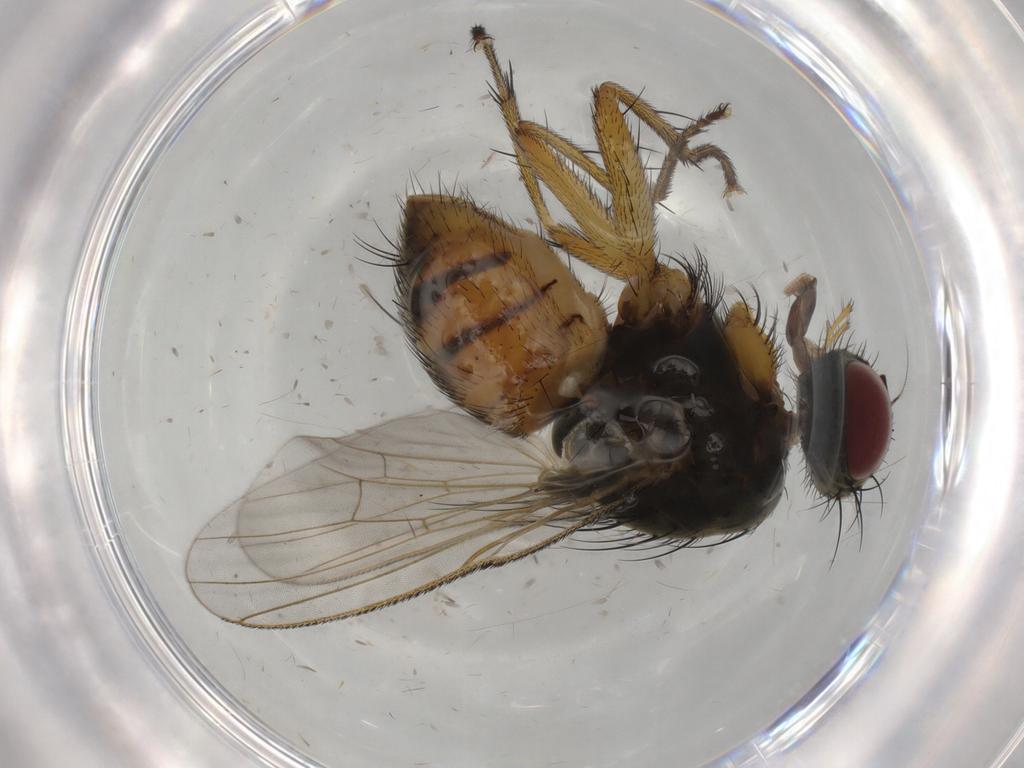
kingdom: Animalia
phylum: Arthropoda
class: Insecta
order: Diptera
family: Muscidae
